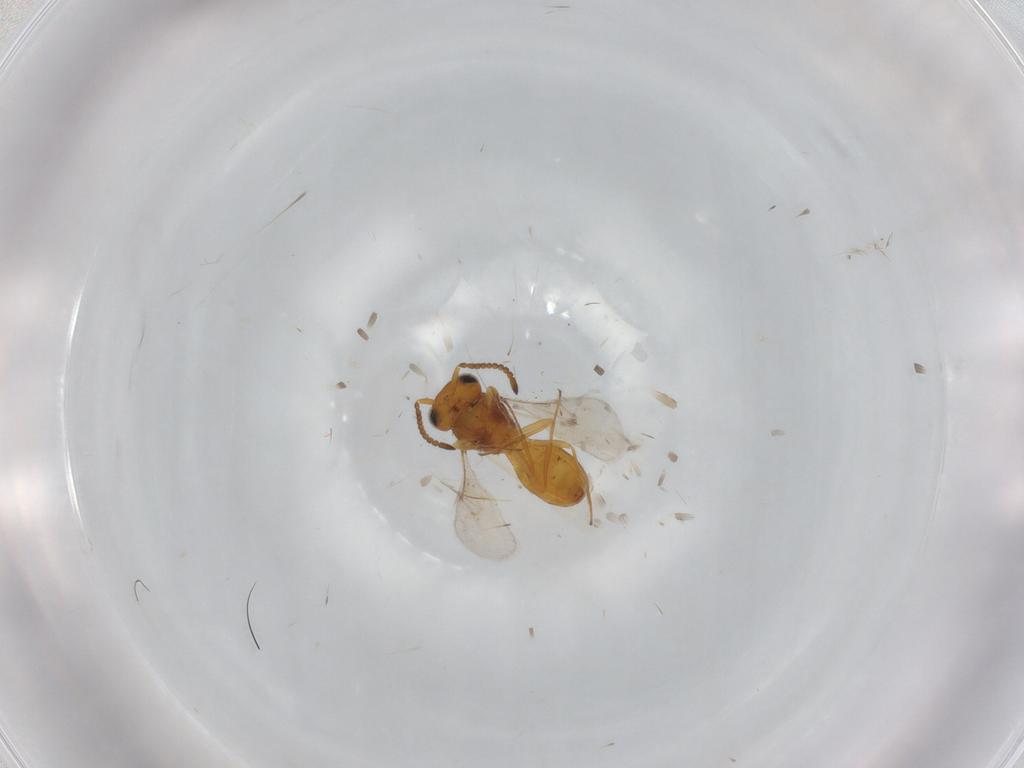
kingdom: Animalia
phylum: Arthropoda
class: Insecta
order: Hymenoptera
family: Scelionidae
